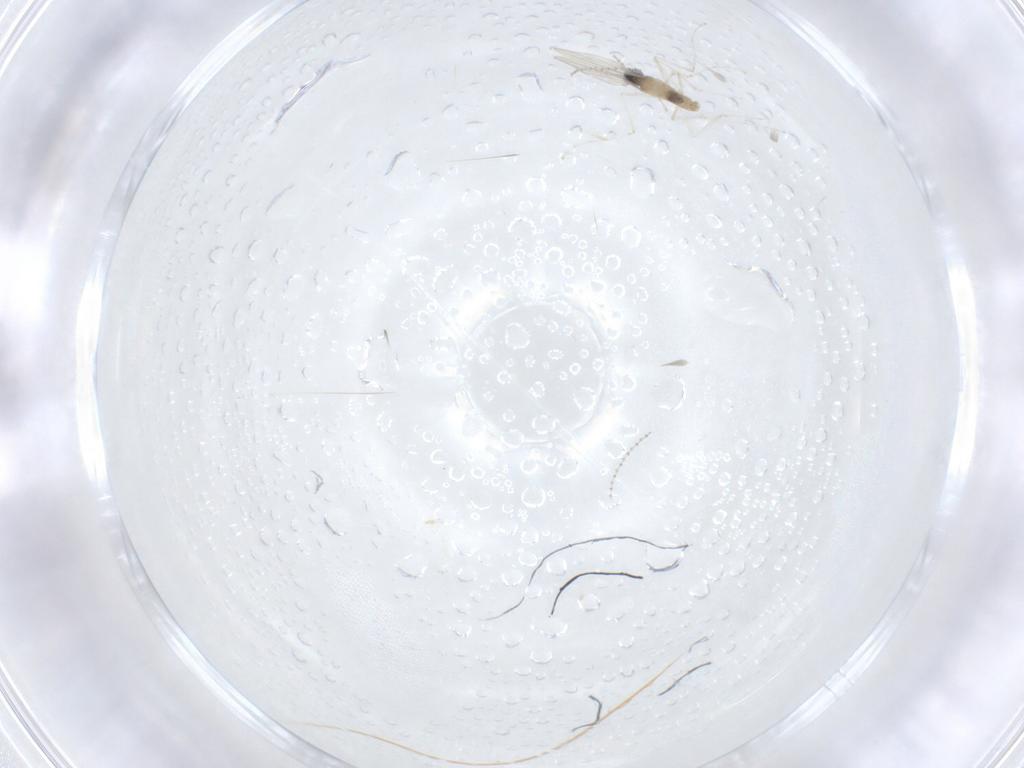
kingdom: Animalia
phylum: Arthropoda
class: Insecta
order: Diptera
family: Cecidomyiidae
